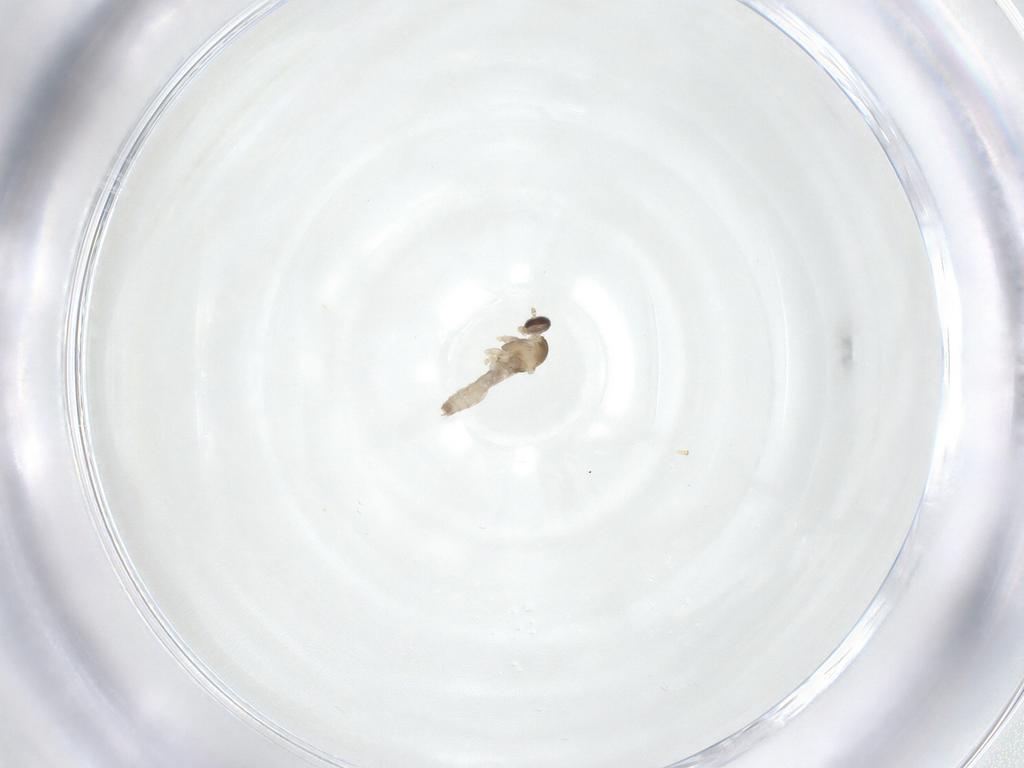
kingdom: Animalia
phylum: Arthropoda
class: Insecta
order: Diptera
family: Cecidomyiidae
